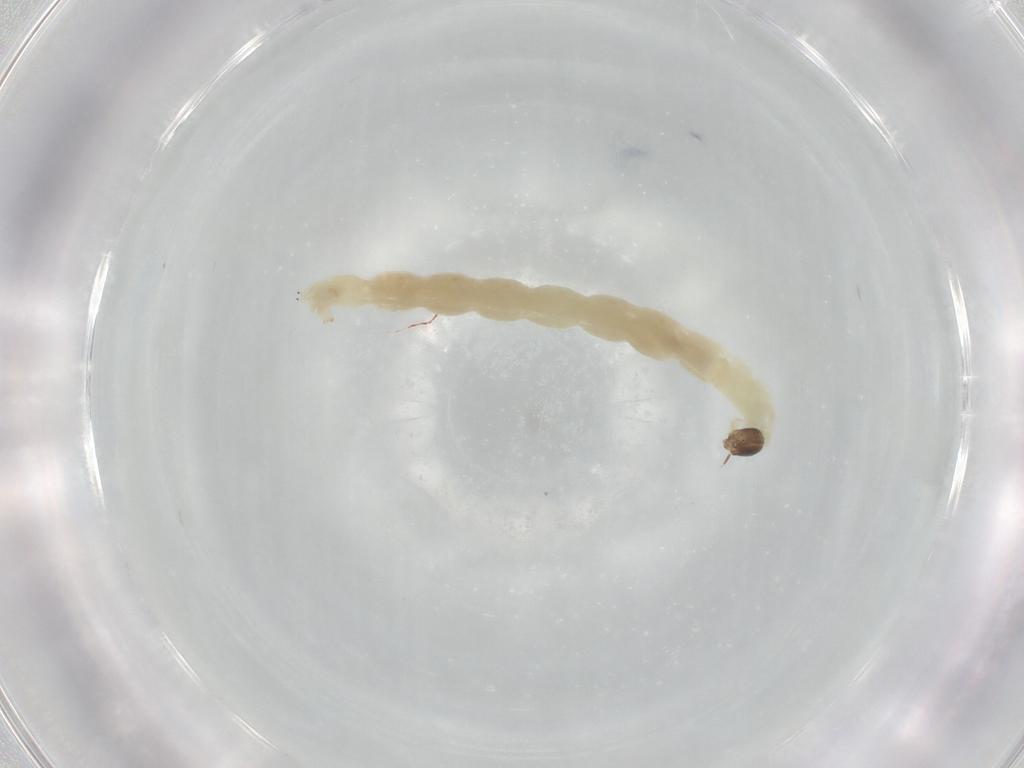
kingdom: Animalia
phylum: Arthropoda
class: Insecta
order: Diptera
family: Chironomidae
